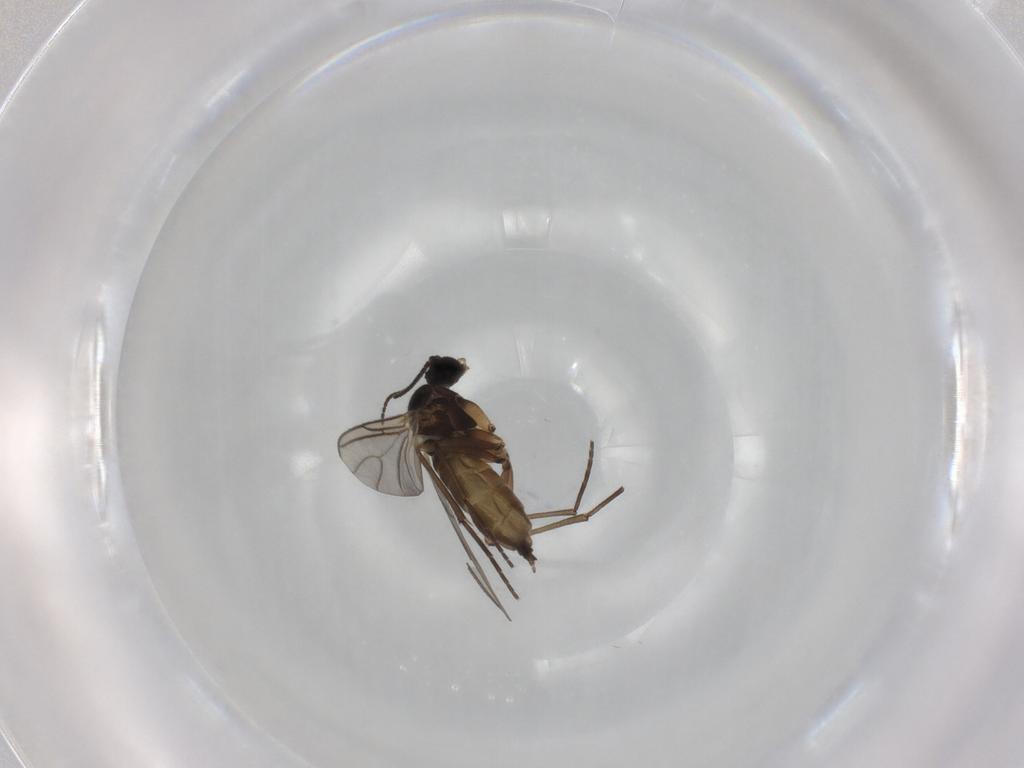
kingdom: Animalia
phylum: Arthropoda
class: Insecta
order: Diptera
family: Sciaridae
